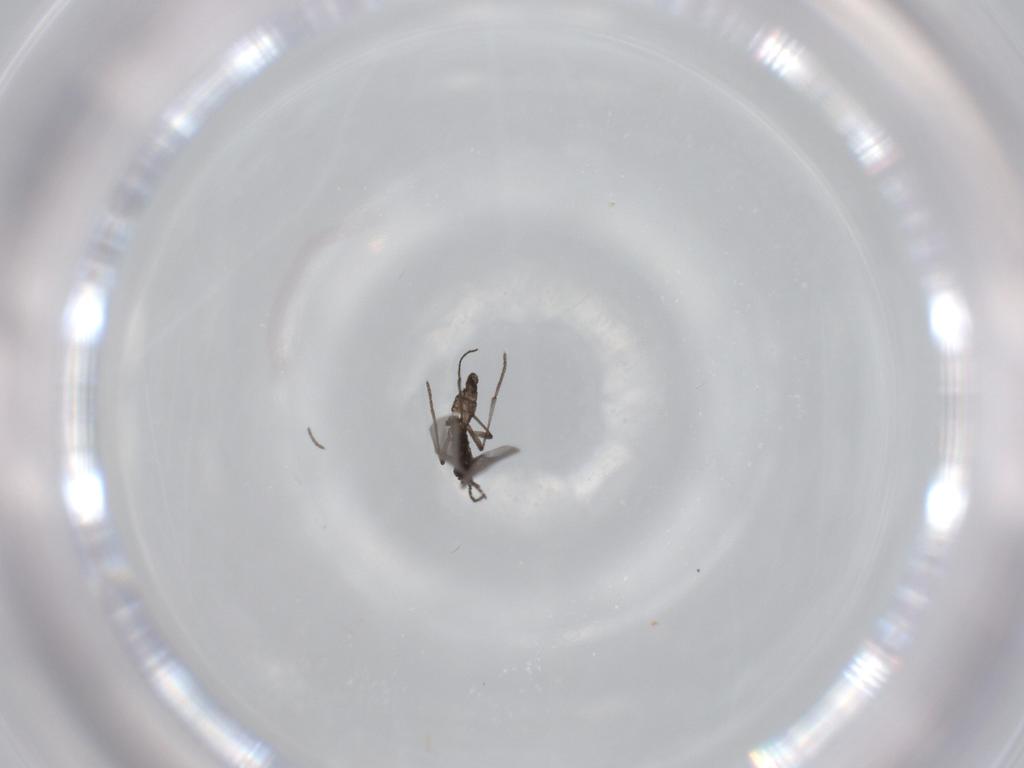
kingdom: Animalia
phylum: Arthropoda
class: Insecta
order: Diptera
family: Sciaridae
